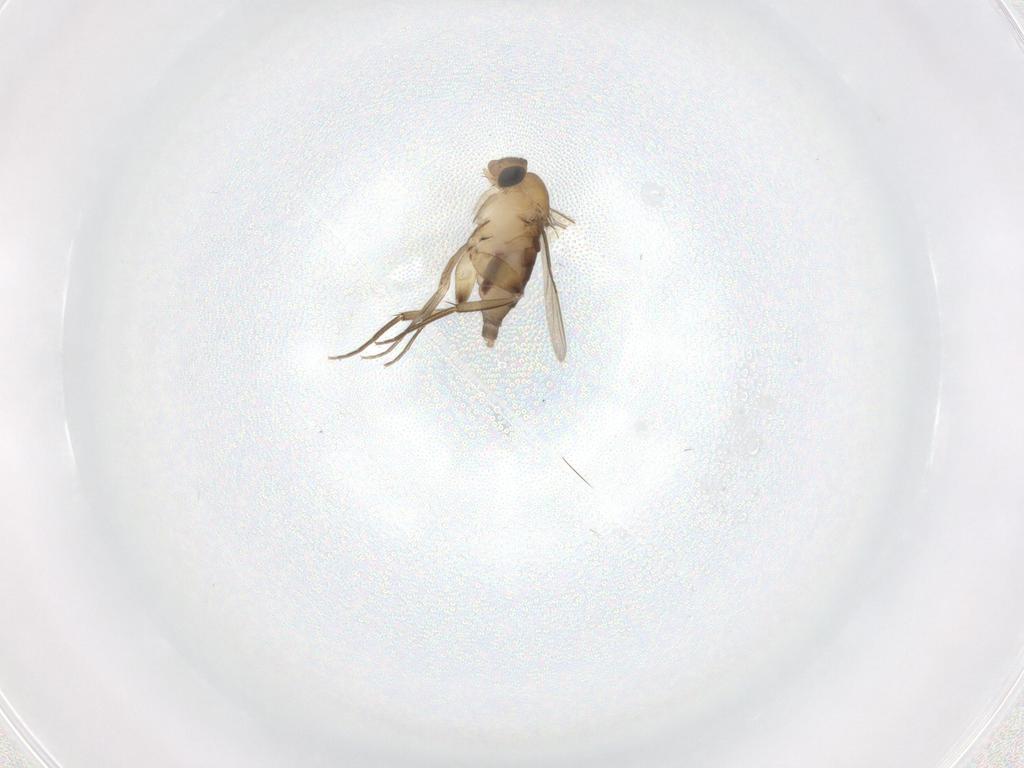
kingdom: Animalia
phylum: Arthropoda
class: Insecta
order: Diptera
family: Phoridae
